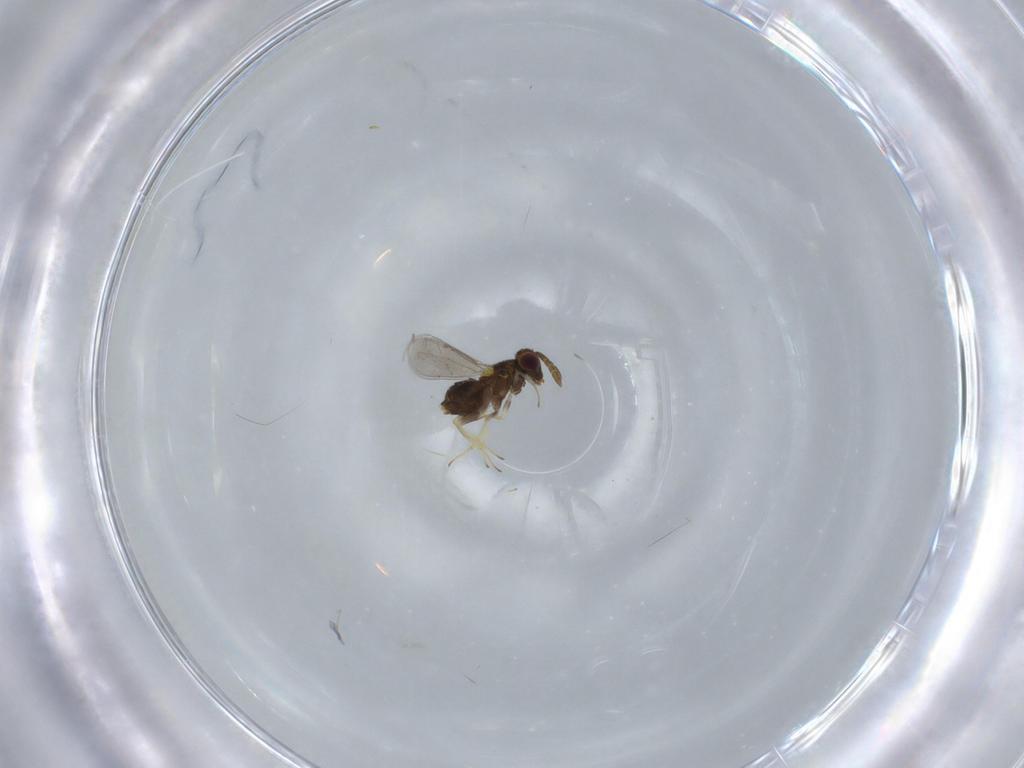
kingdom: Animalia
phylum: Arthropoda
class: Insecta
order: Hymenoptera
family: Aphelinidae
